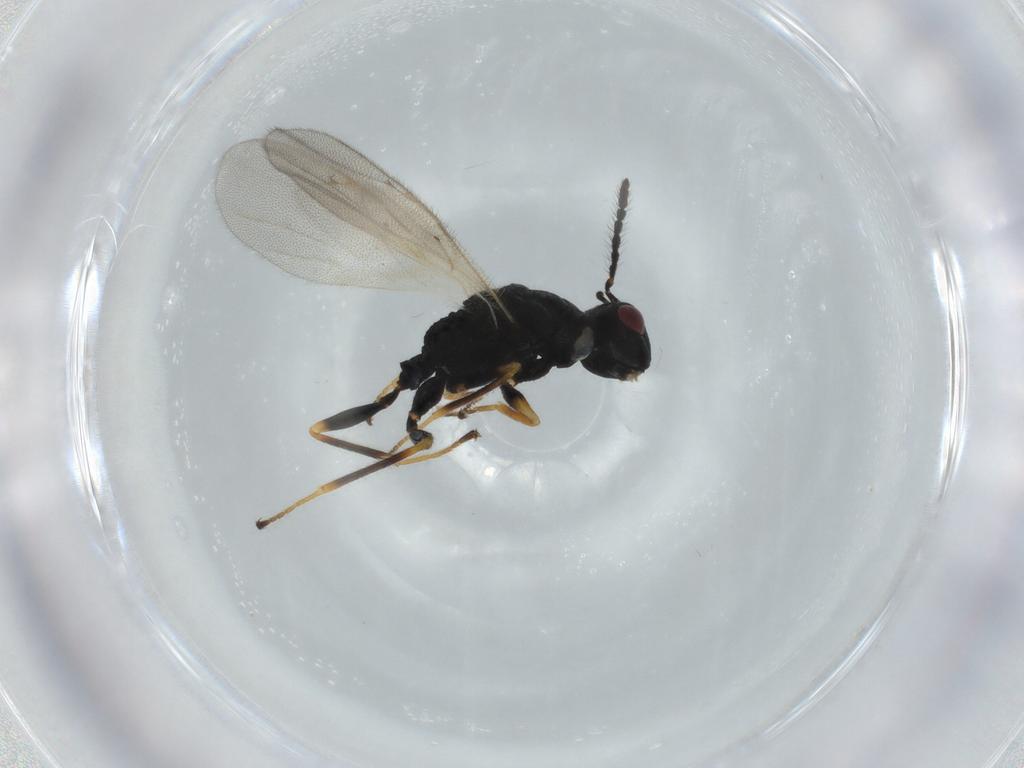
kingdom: Animalia
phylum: Arthropoda
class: Insecta
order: Hymenoptera
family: Eurytomidae
